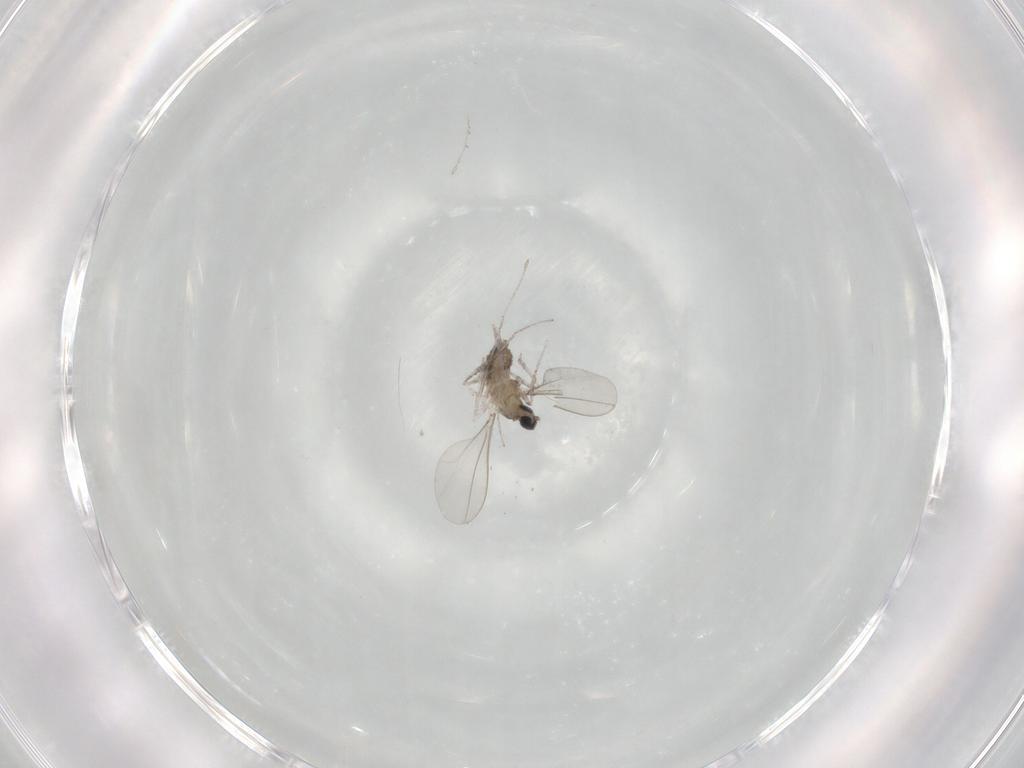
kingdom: Animalia
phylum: Arthropoda
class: Insecta
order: Diptera
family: Cecidomyiidae
